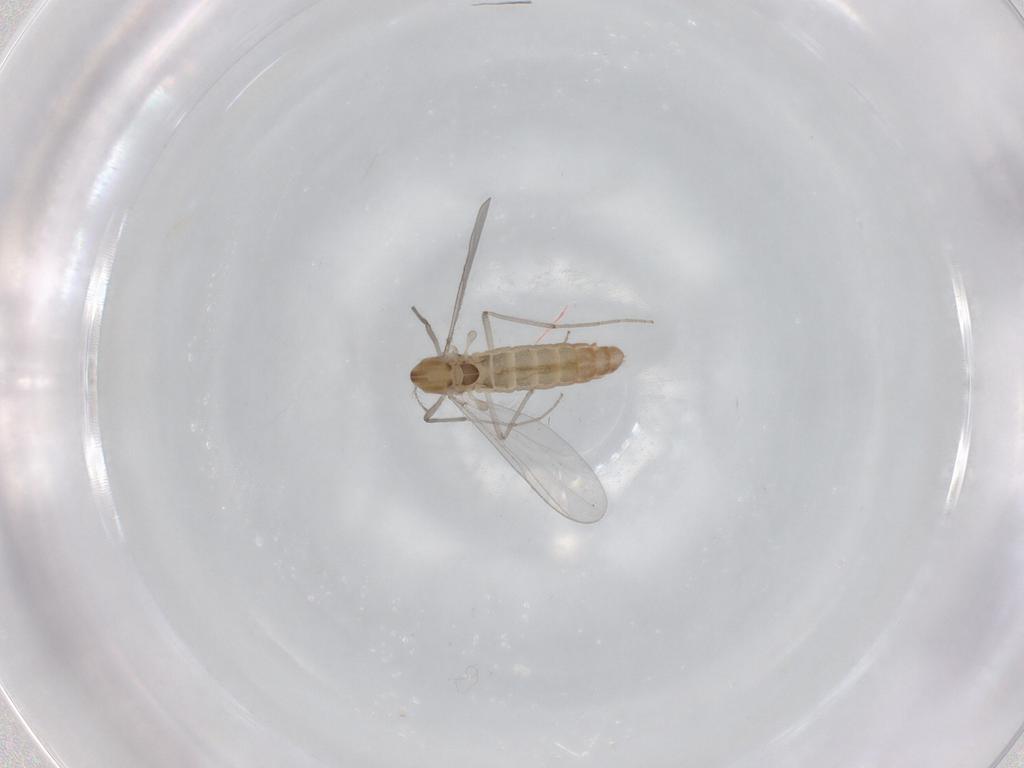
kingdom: Animalia
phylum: Arthropoda
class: Insecta
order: Diptera
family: Chironomidae
